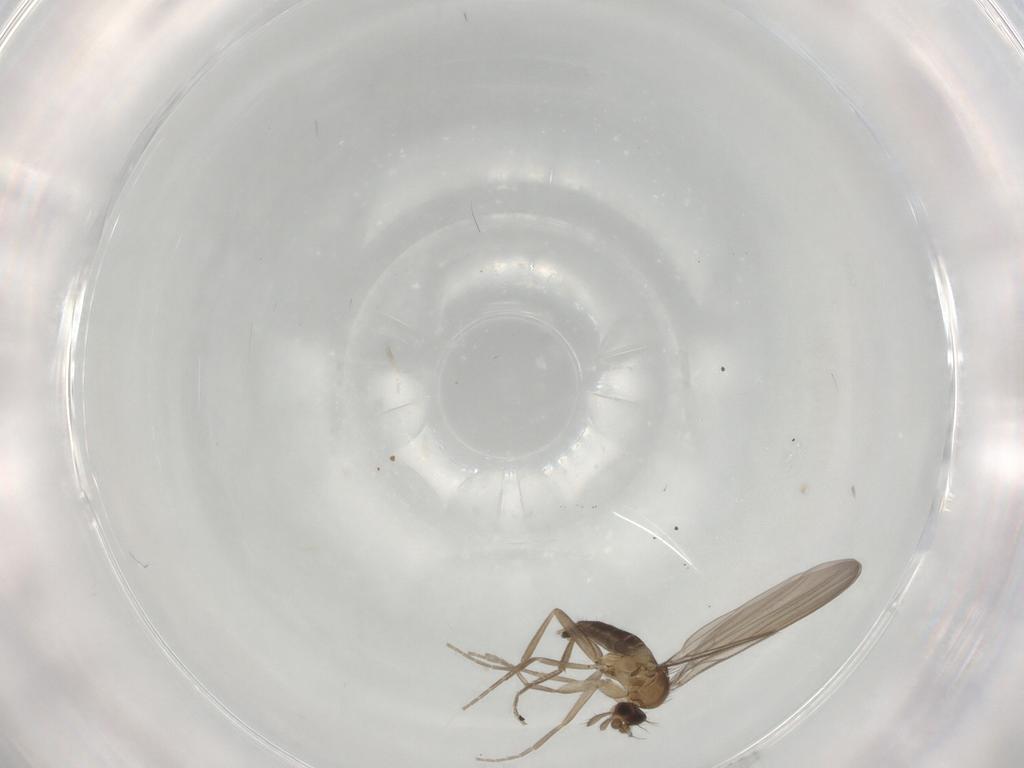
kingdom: Animalia
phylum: Arthropoda
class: Insecta
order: Diptera
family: Phoridae
